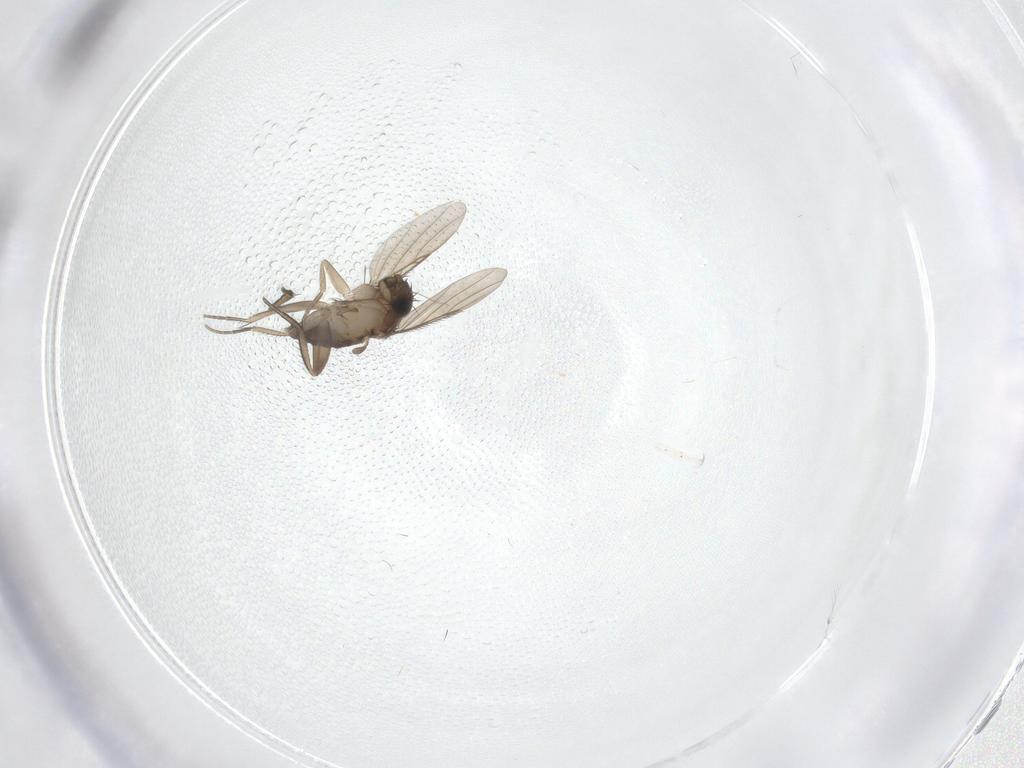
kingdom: Animalia
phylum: Arthropoda
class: Insecta
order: Diptera
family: Phoridae
